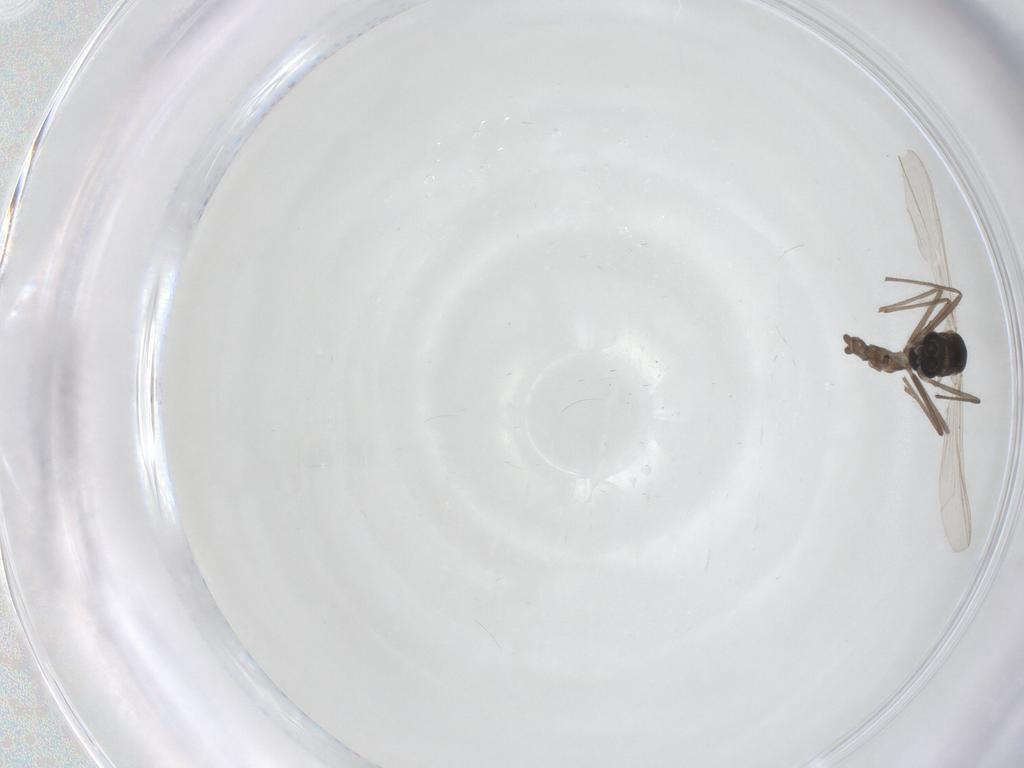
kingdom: Animalia
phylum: Arthropoda
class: Insecta
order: Diptera
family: Chironomidae
